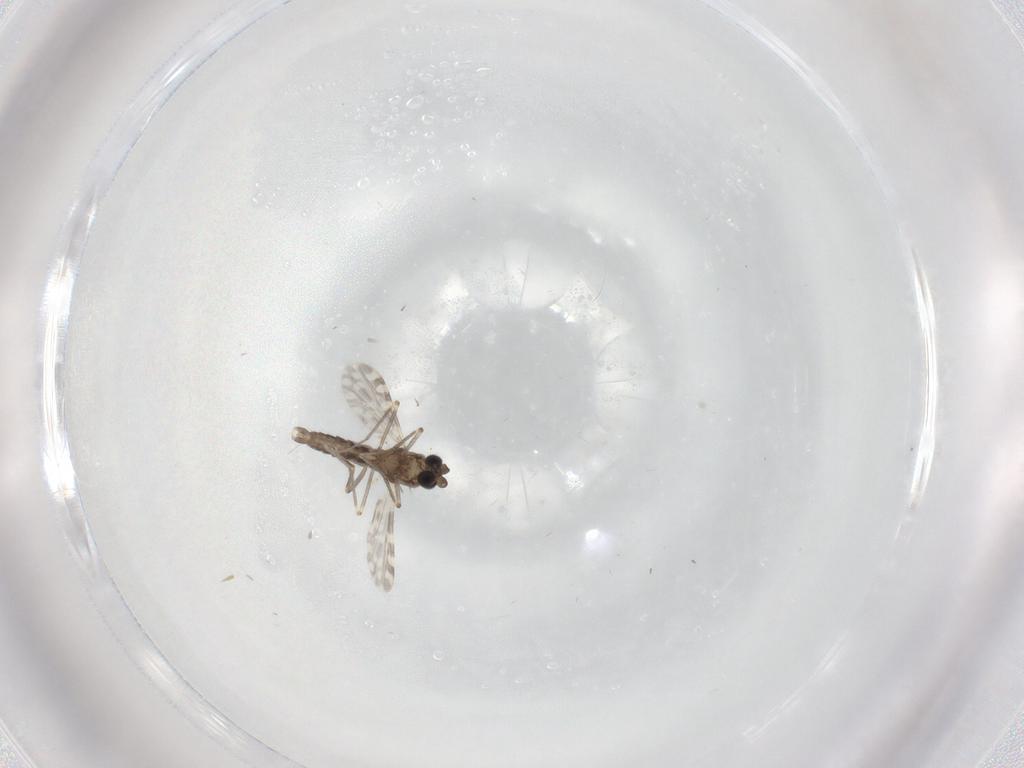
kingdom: Animalia
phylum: Arthropoda
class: Insecta
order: Diptera
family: Ceratopogonidae
